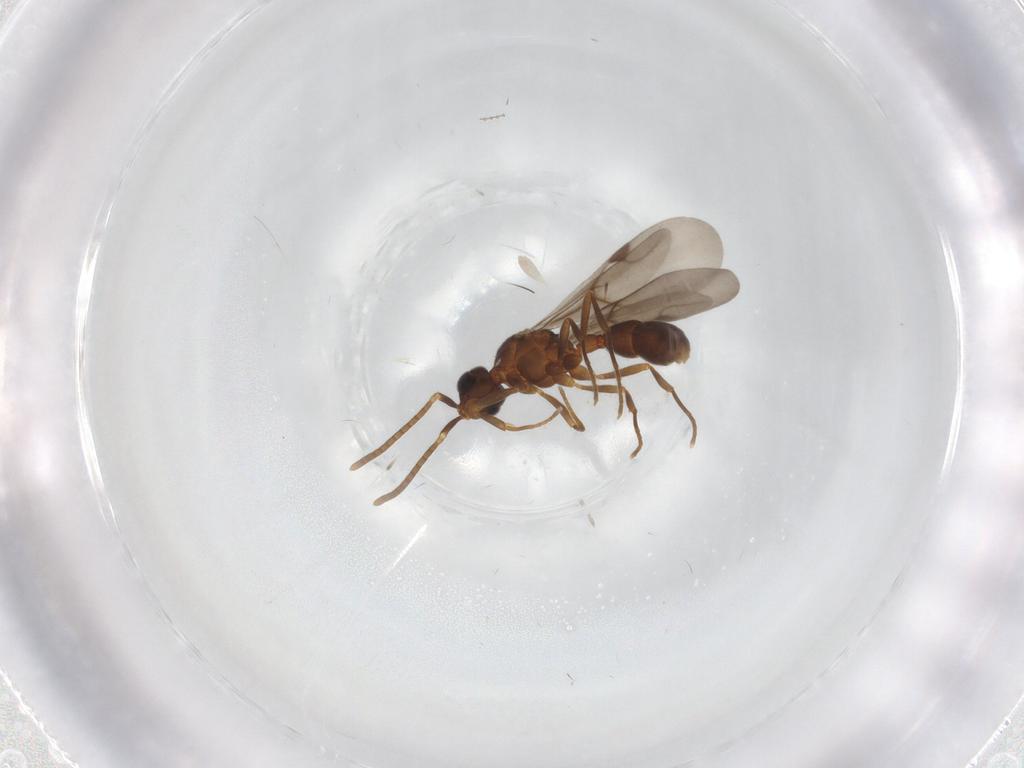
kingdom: Animalia
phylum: Arthropoda
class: Insecta
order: Hymenoptera
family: Formicidae
